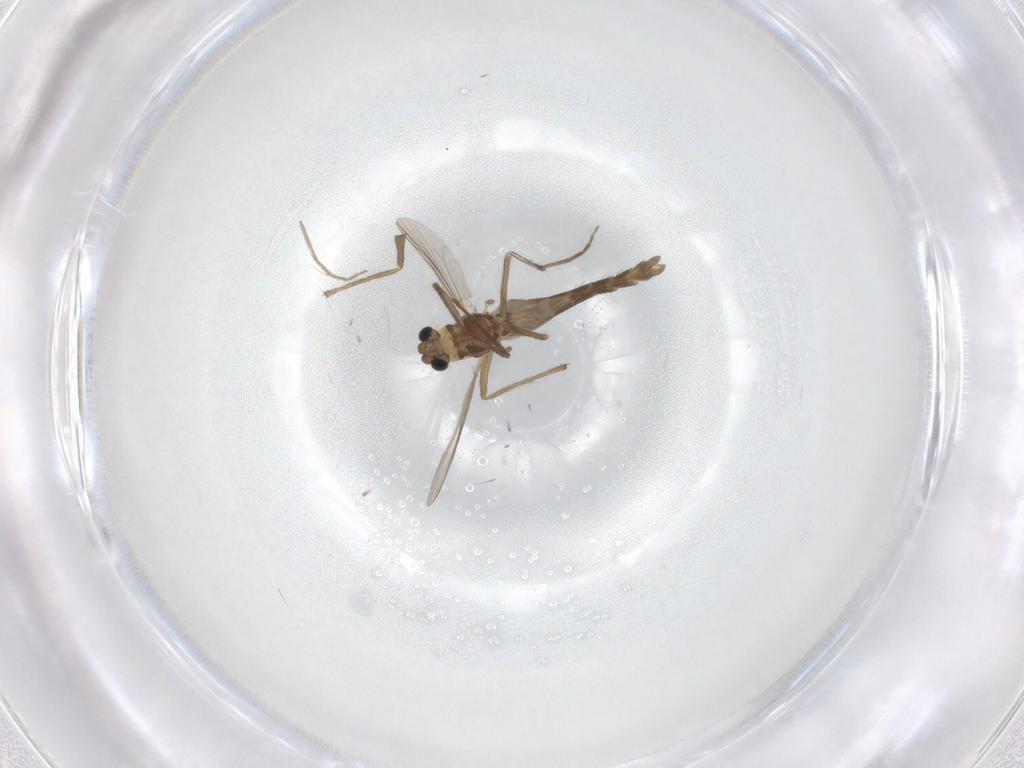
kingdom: Animalia
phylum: Arthropoda
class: Insecta
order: Diptera
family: Chironomidae
